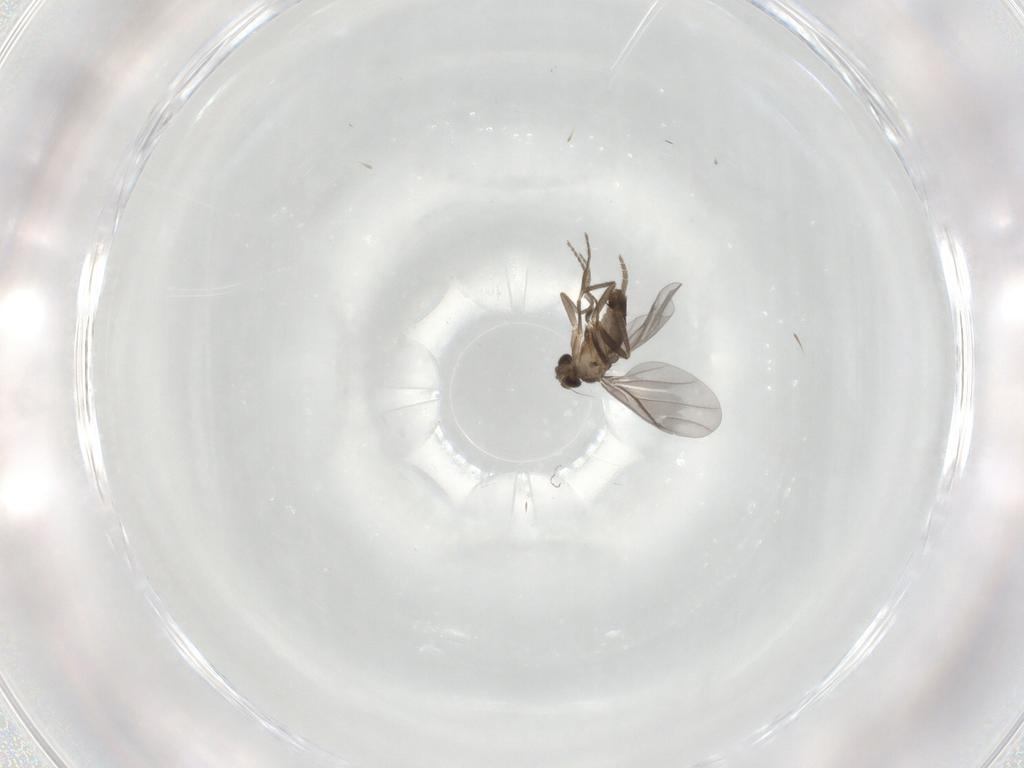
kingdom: Animalia
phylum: Arthropoda
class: Insecta
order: Diptera
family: Phoridae
